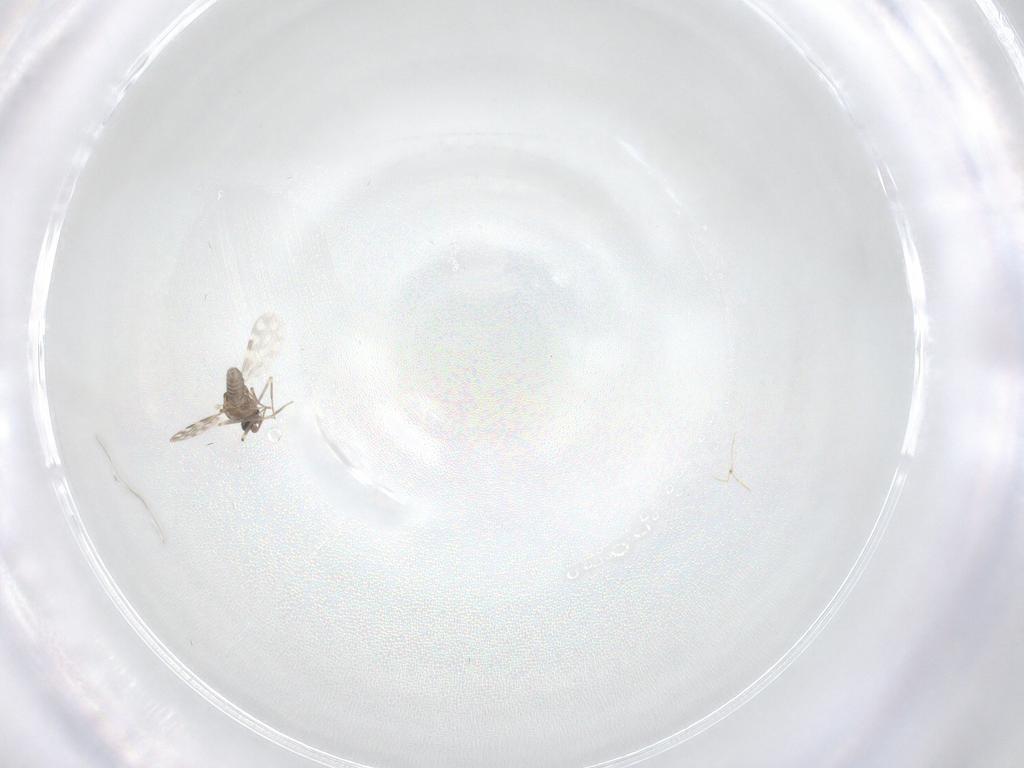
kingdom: Animalia
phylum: Arthropoda
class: Insecta
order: Diptera
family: Ceratopogonidae
